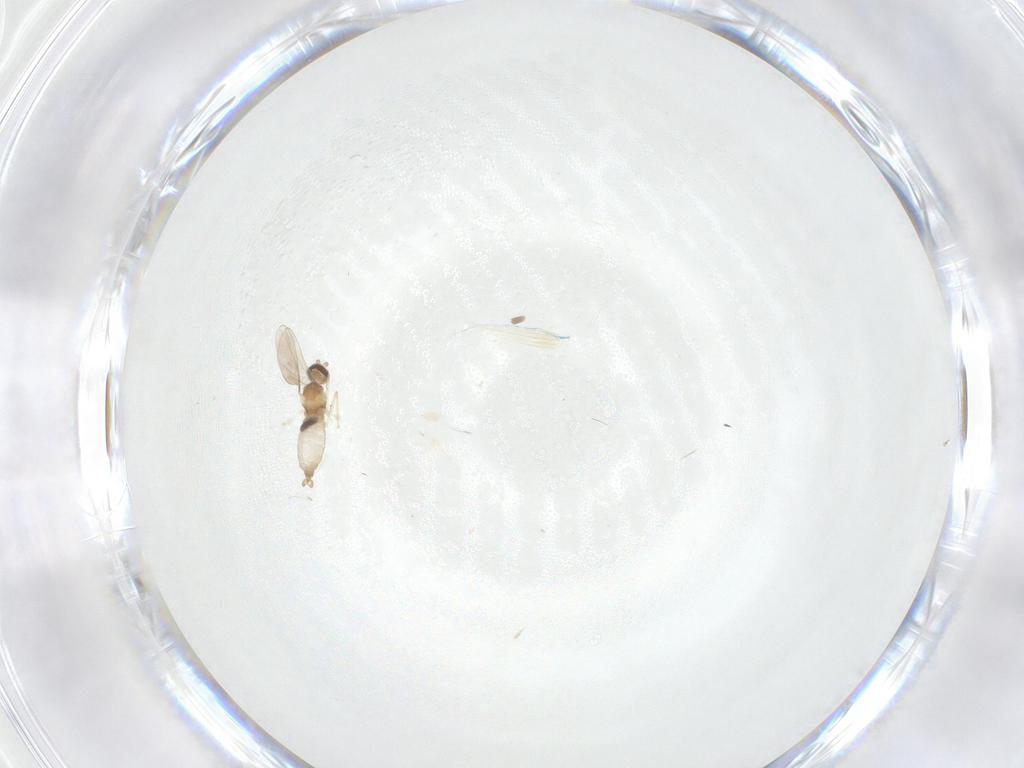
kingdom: Animalia
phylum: Arthropoda
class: Insecta
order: Diptera
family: Cecidomyiidae
